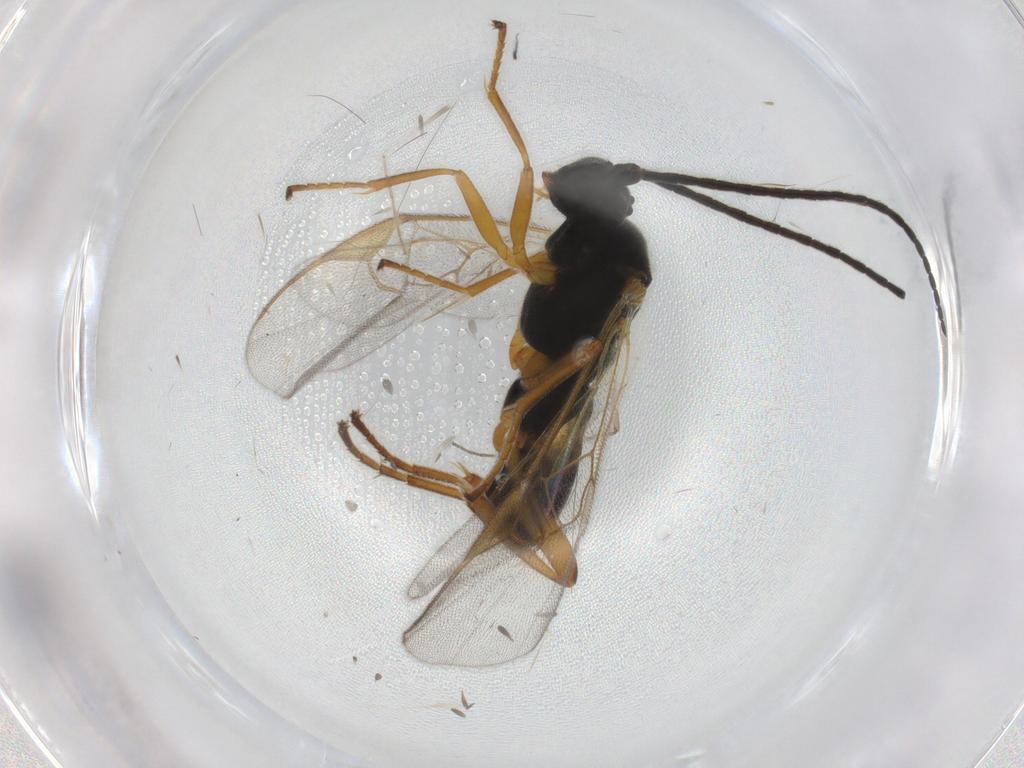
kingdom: Animalia
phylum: Arthropoda
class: Insecta
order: Hymenoptera
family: Braconidae
